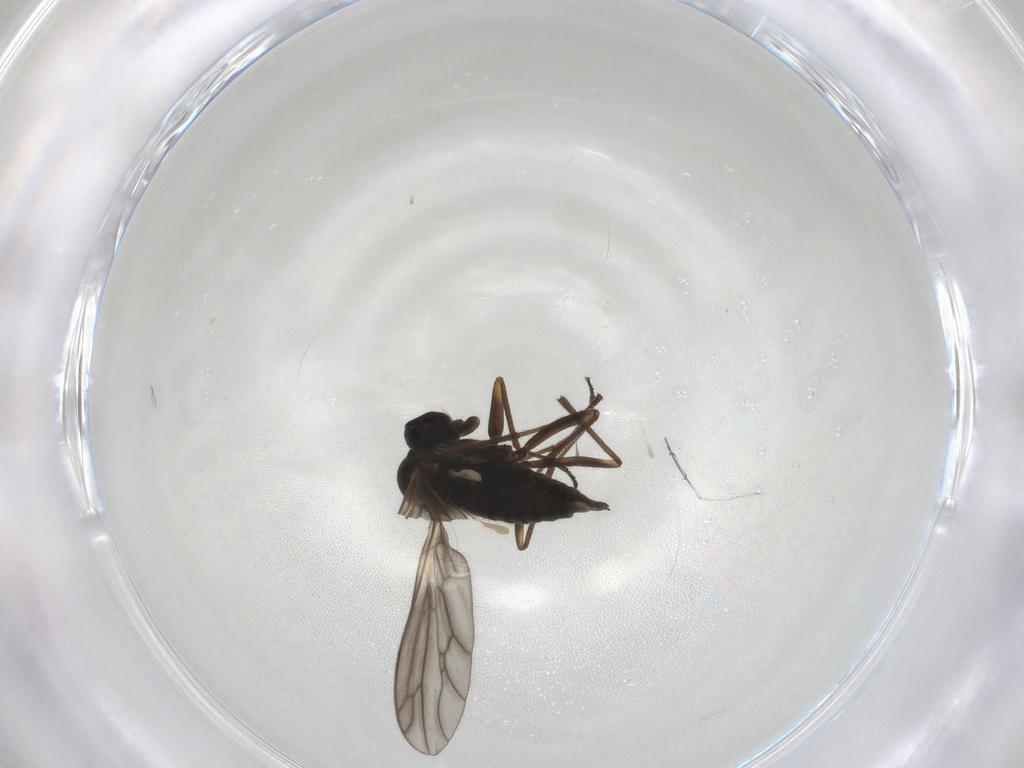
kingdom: Animalia
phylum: Arthropoda
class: Insecta
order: Diptera
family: Empididae
